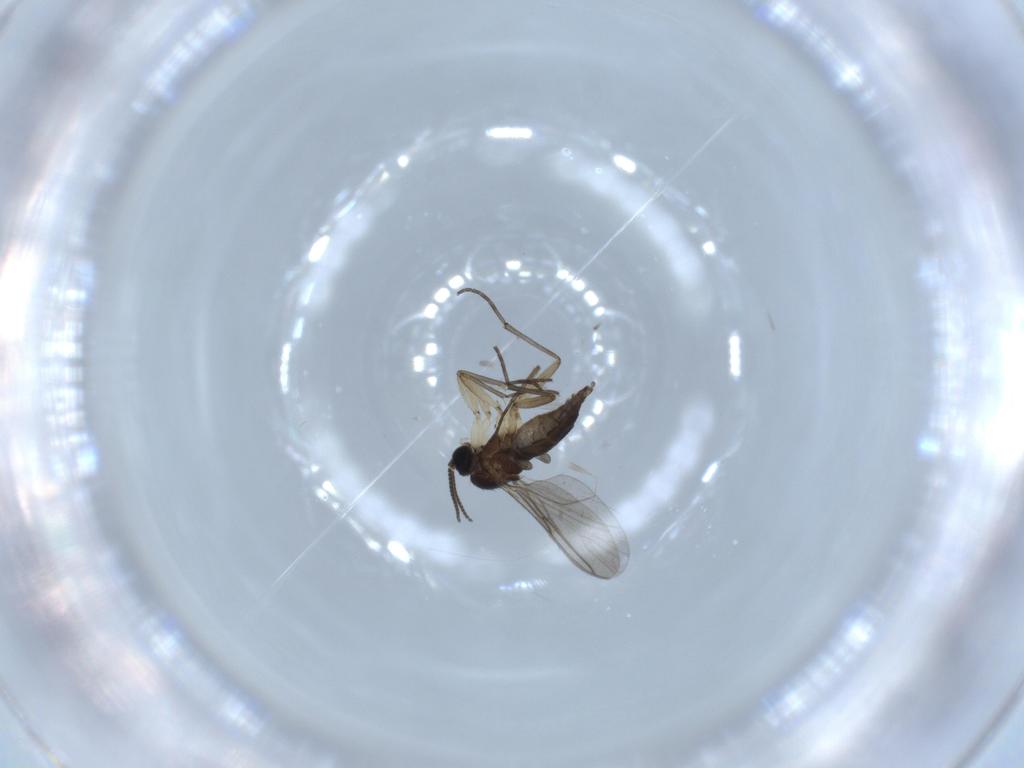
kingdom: Animalia
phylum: Arthropoda
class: Insecta
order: Diptera
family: Sciaridae
